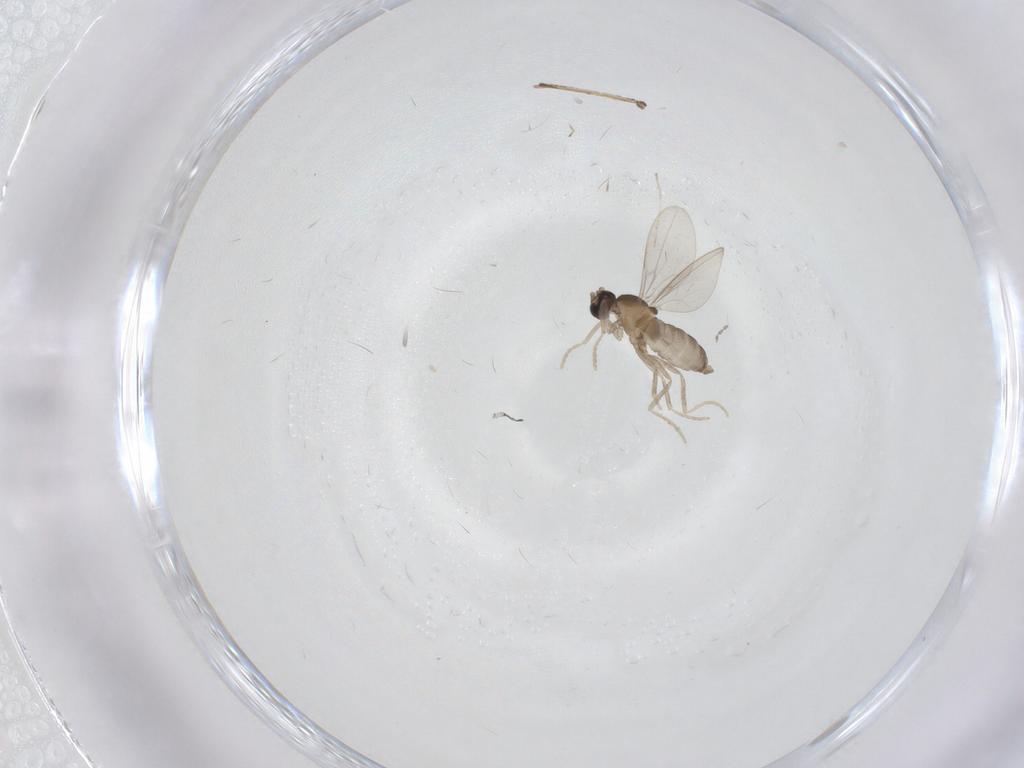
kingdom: Animalia
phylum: Arthropoda
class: Insecta
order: Diptera
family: Cecidomyiidae
